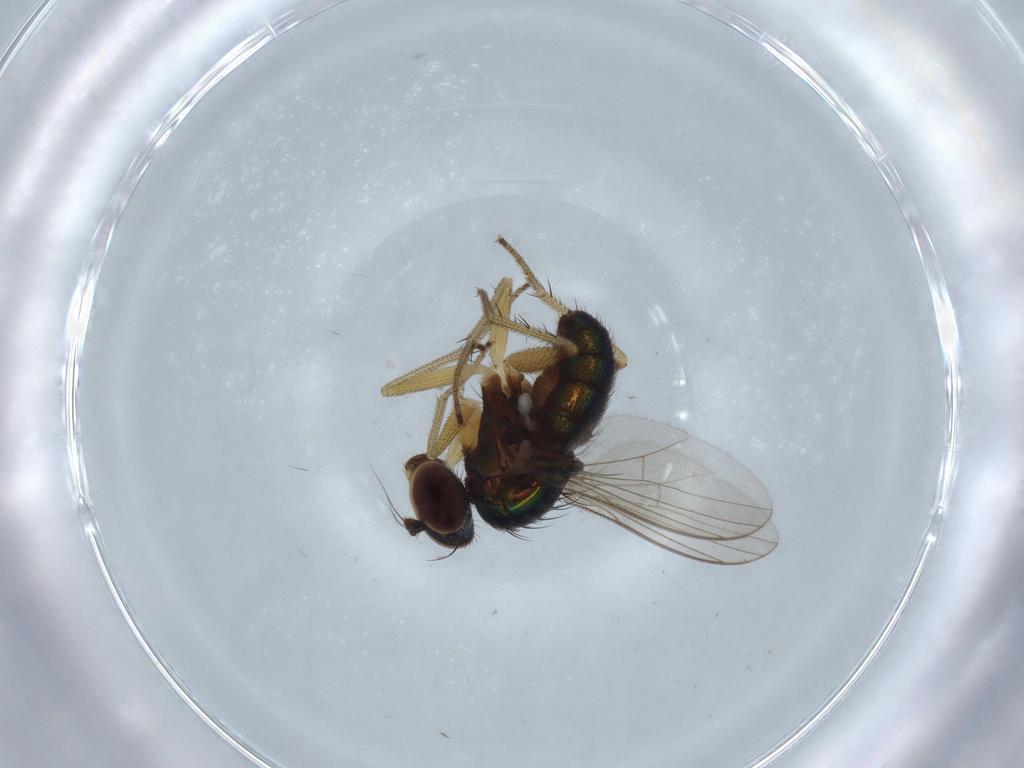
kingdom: Animalia
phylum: Arthropoda
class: Insecta
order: Diptera
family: Dolichopodidae
